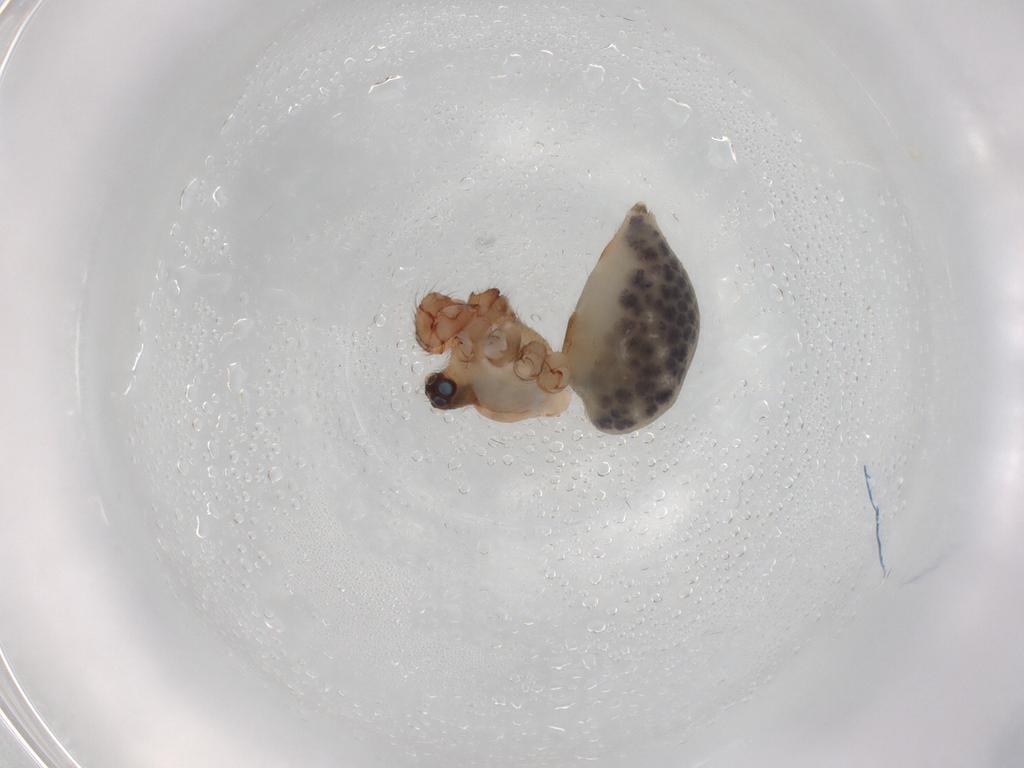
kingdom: Animalia
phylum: Arthropoda
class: Arachnida
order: Araneae
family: Pholcidae
